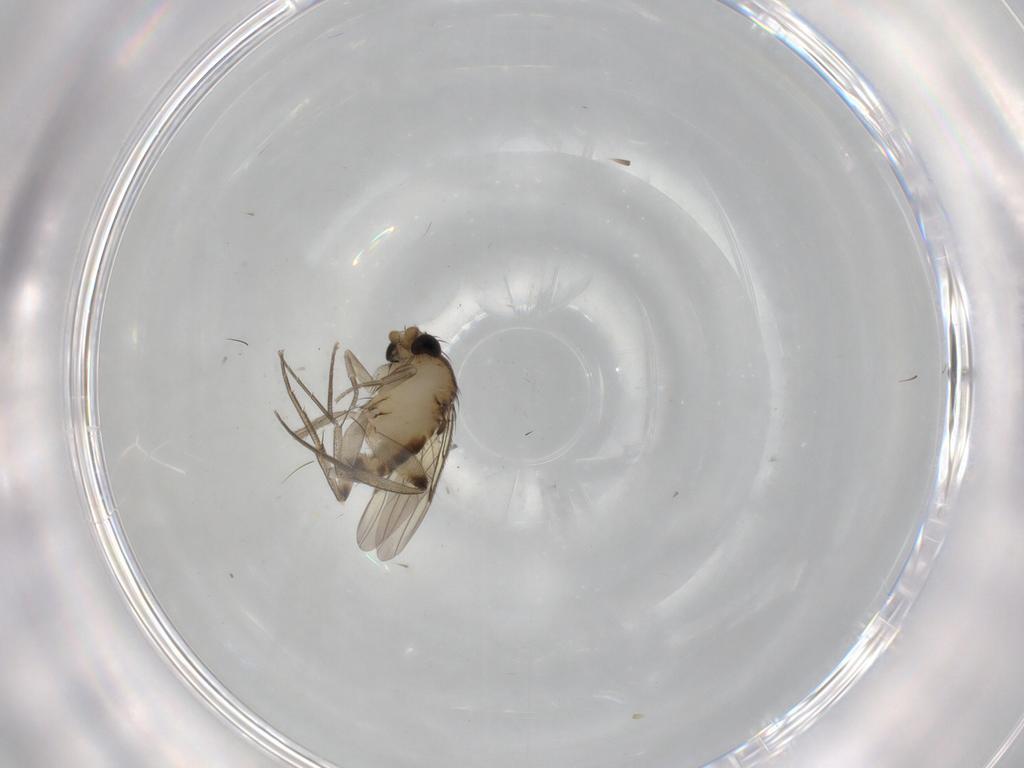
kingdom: Animalia
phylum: Arthropoda
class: Insecta
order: Diptera
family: Phoridae
